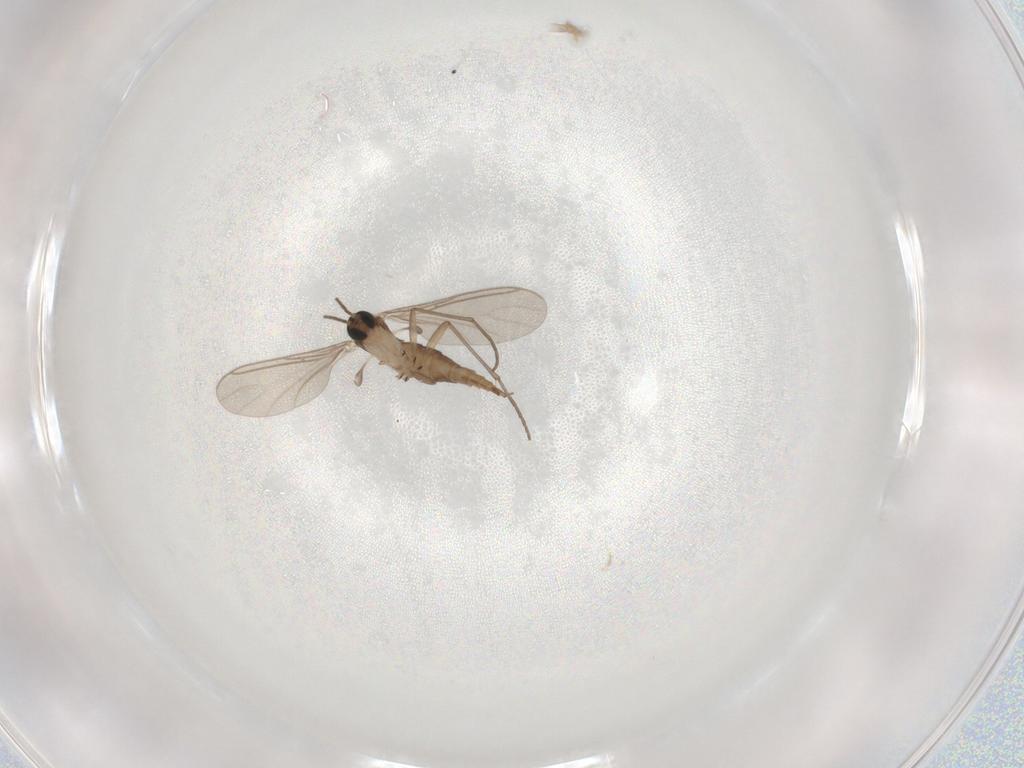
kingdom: Animalia
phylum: Arthropoda
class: Insecta
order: Diptera
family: Sciaridae
